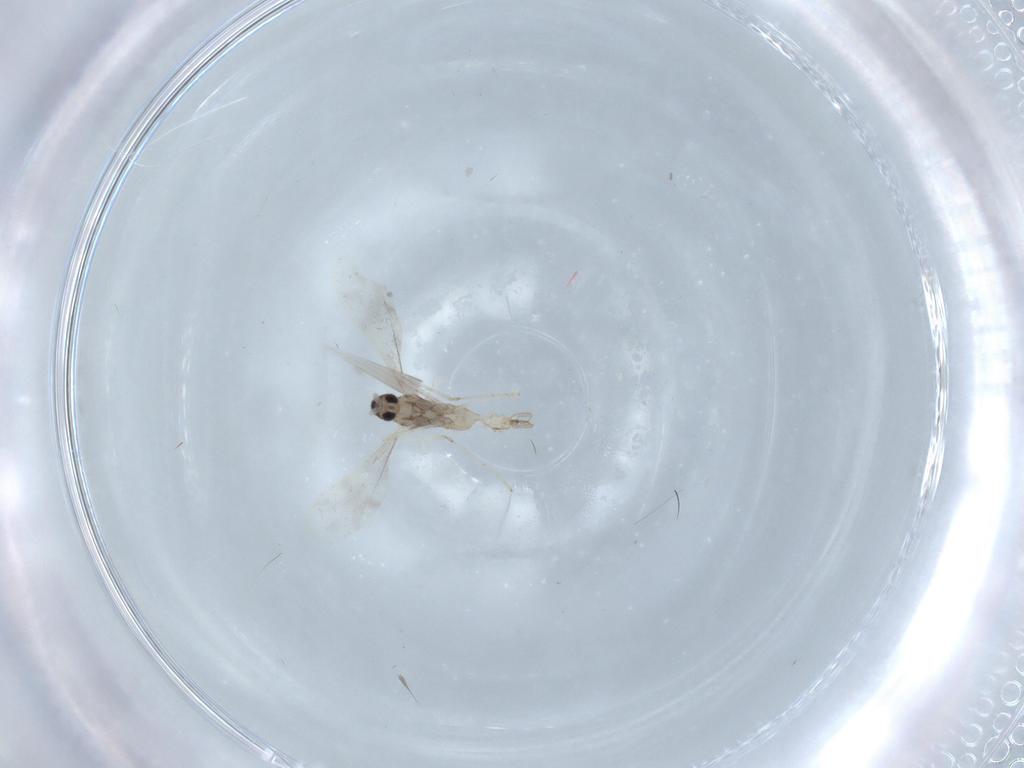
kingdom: Animalia
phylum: Arthropoda
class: Insecta
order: Diptera
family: Cecidomyiidae
